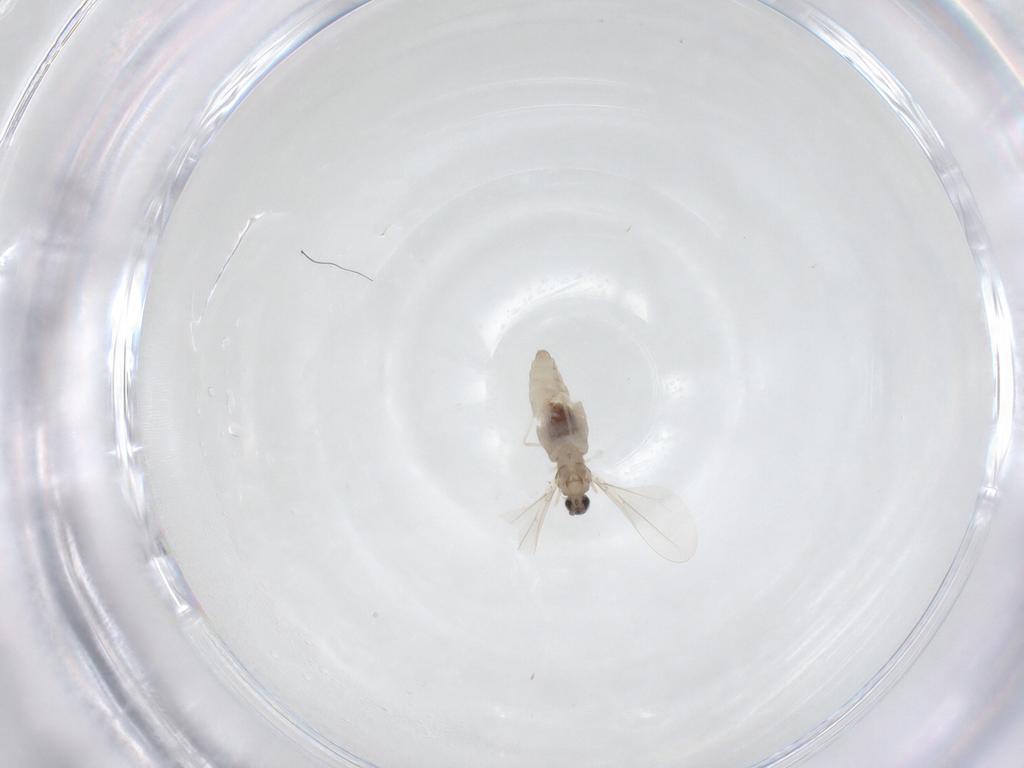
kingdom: Animalia
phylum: Arthropoda
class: Insecta
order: Diptera
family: Cecidomyiidae
